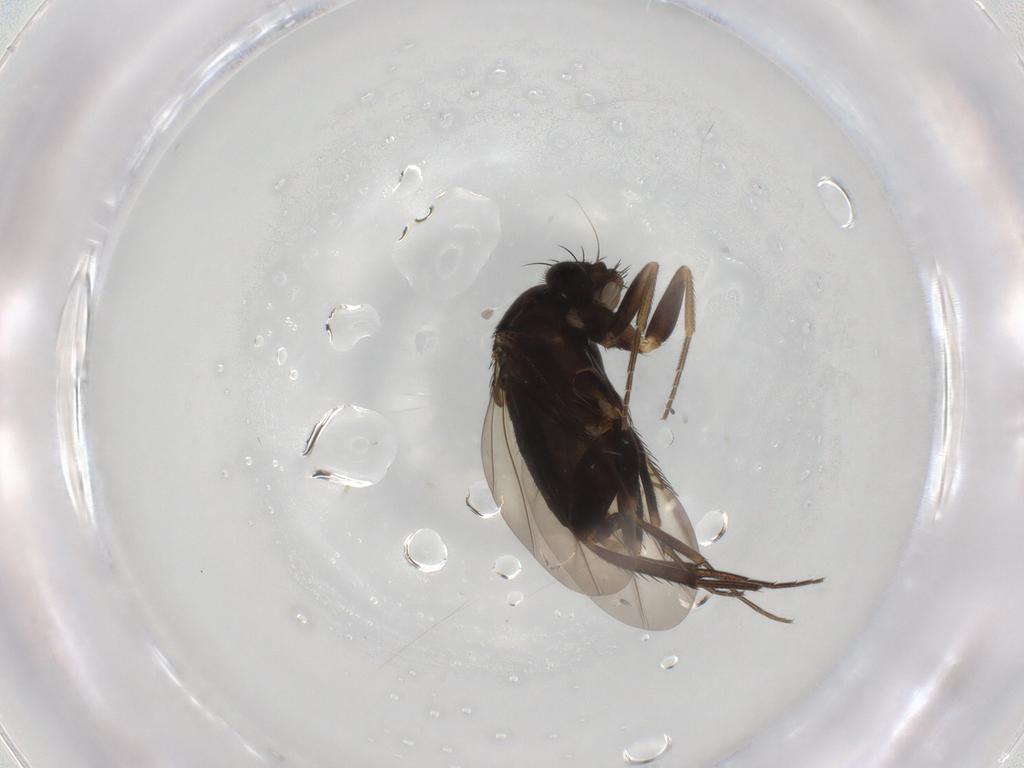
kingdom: Animalia
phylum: Arthropoda
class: Insecta
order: Diptera
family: Phoridae
